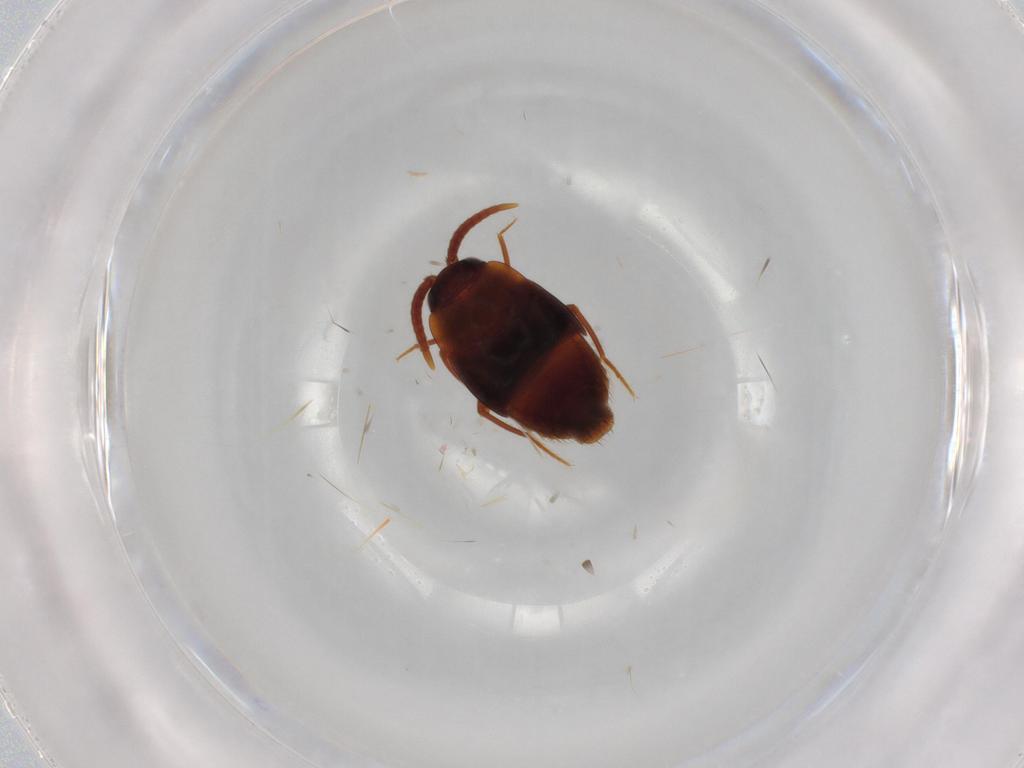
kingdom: Animalia
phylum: Arthropoda
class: Insecta
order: Coleoptera
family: Staphylinidae
